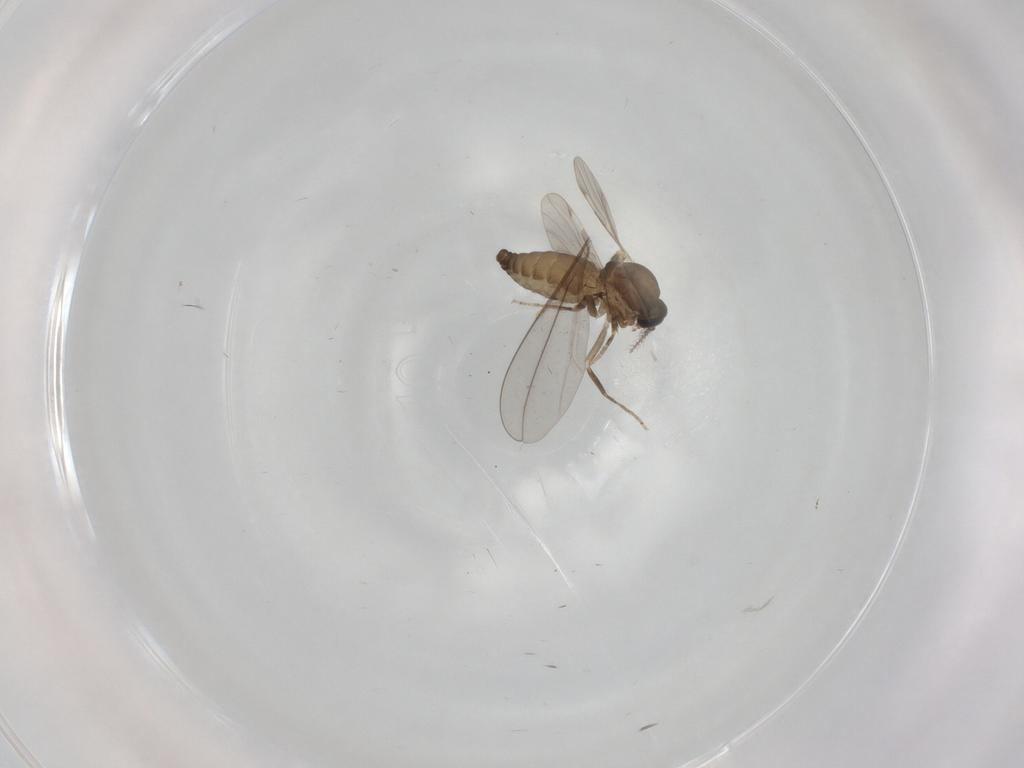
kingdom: Animalia
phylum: Arthropoda
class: Insecta
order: Diptera
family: Ceratopogonidae
